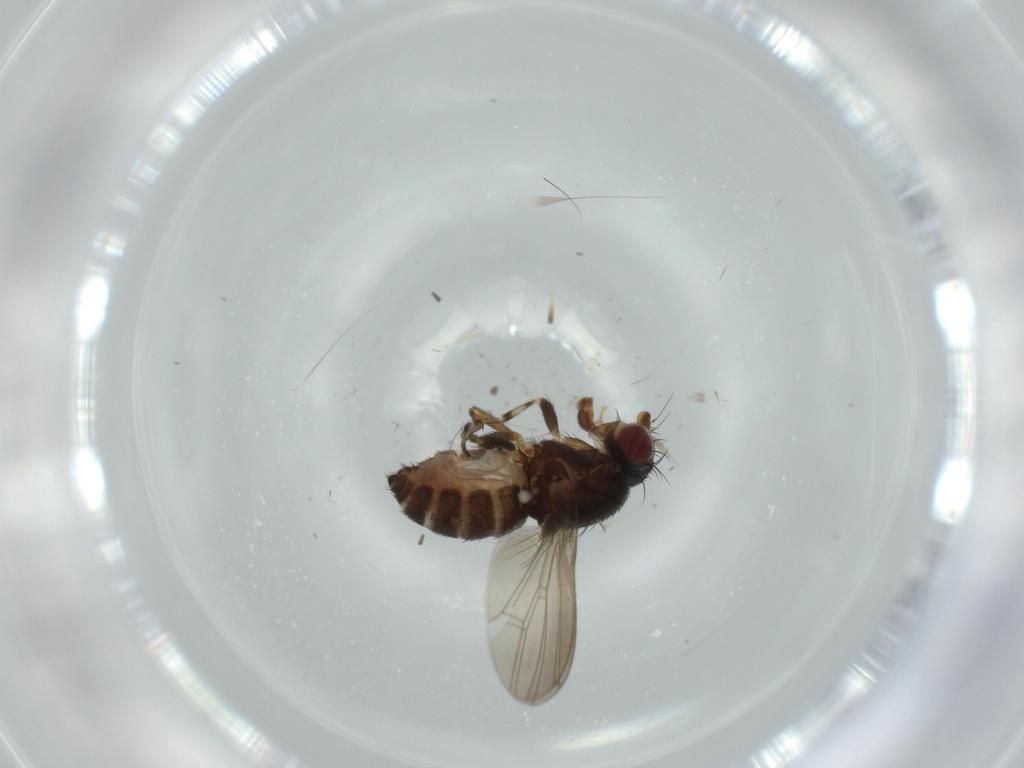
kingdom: Animalia
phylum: Arthropoda
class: Insecta
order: Diptera
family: Heleomyzidae
